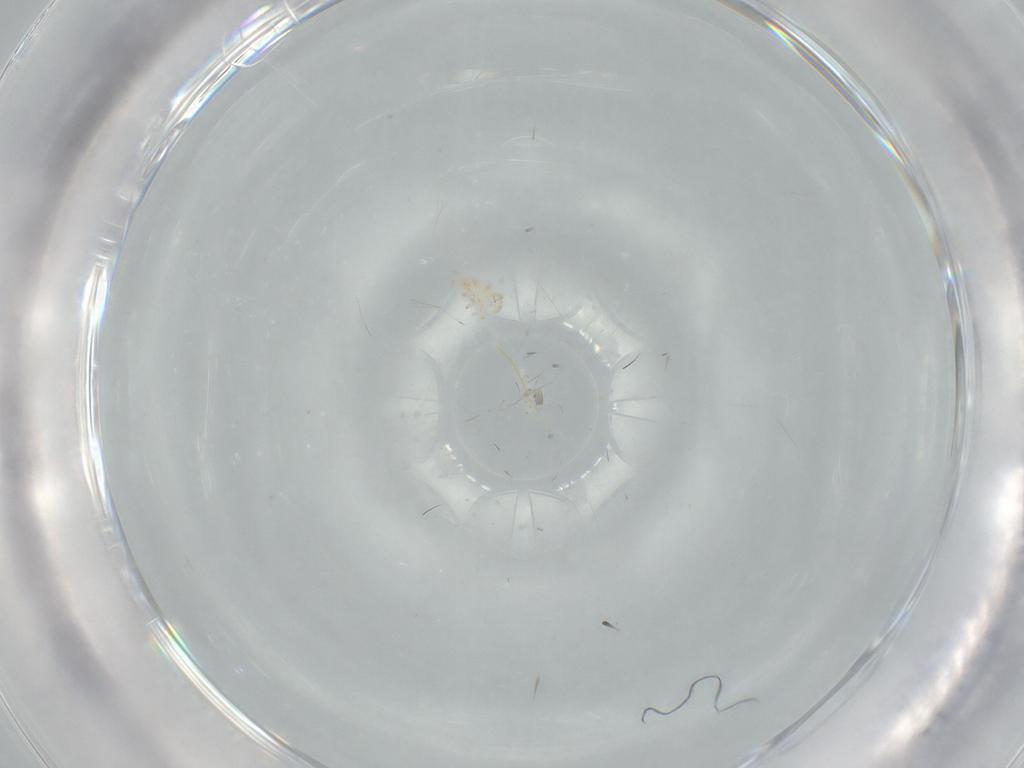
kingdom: Animalia
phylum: Arthropoda
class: Arachnida
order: Mesostigmata
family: Digamasellidae
